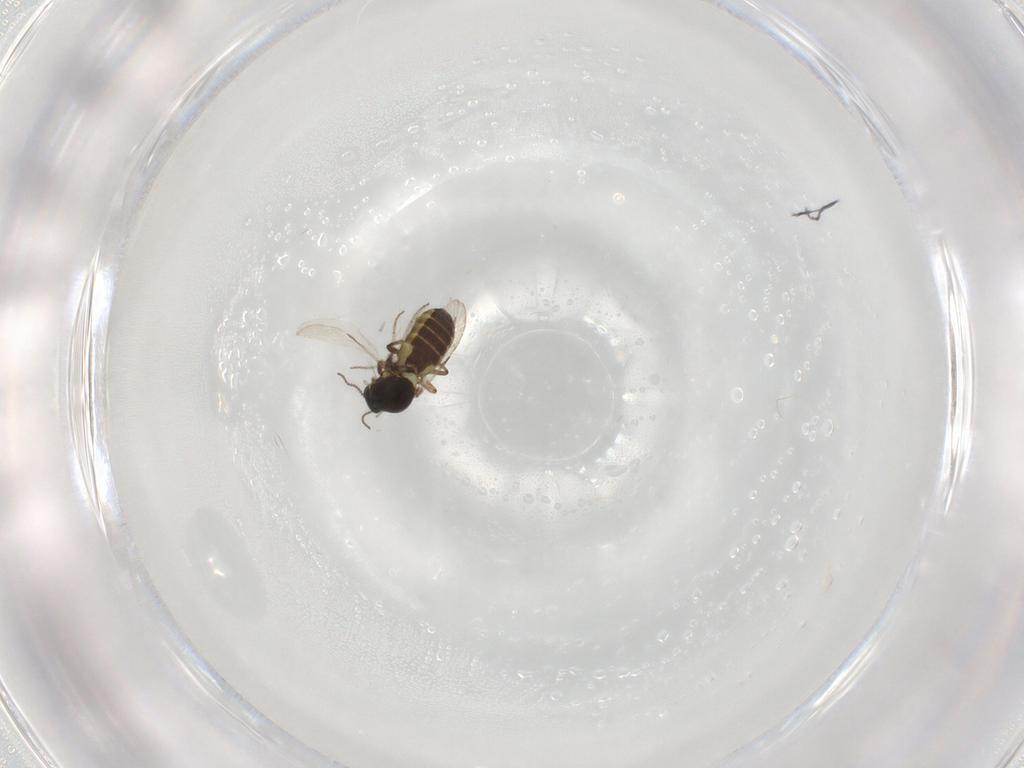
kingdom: Animalia
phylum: Arthropoda
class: Insecta
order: Diptera
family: Ceratopogonidae
